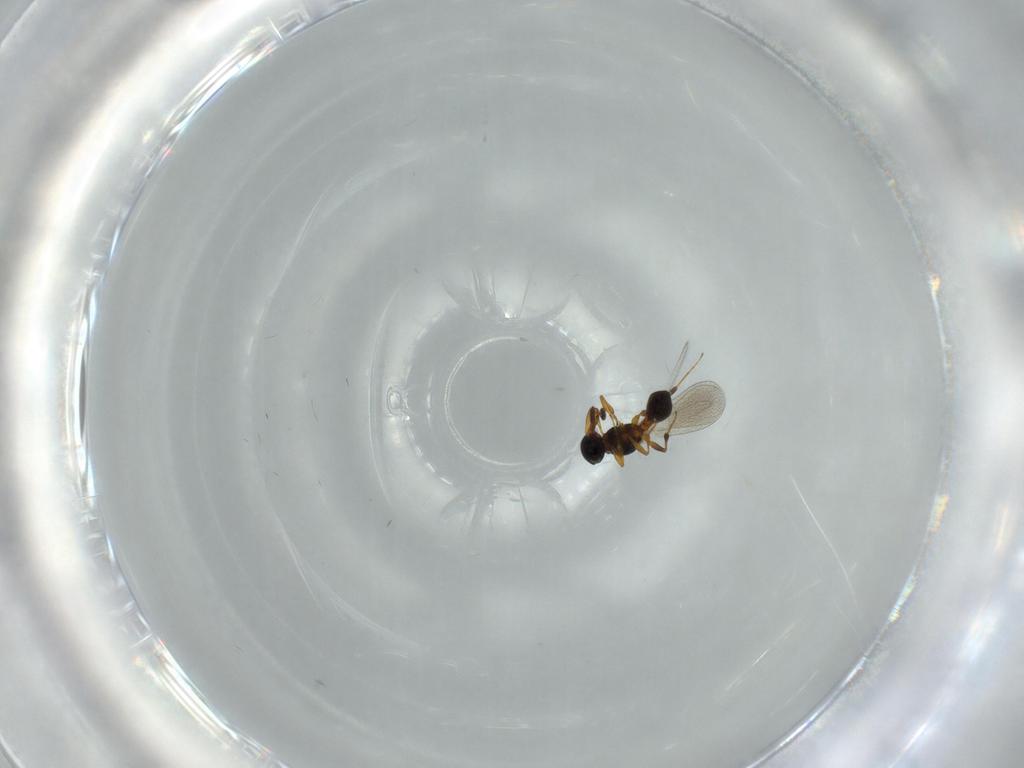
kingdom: Animalia
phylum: Arthropoda
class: Insecta
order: Hymenoptera
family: Platygastridae
